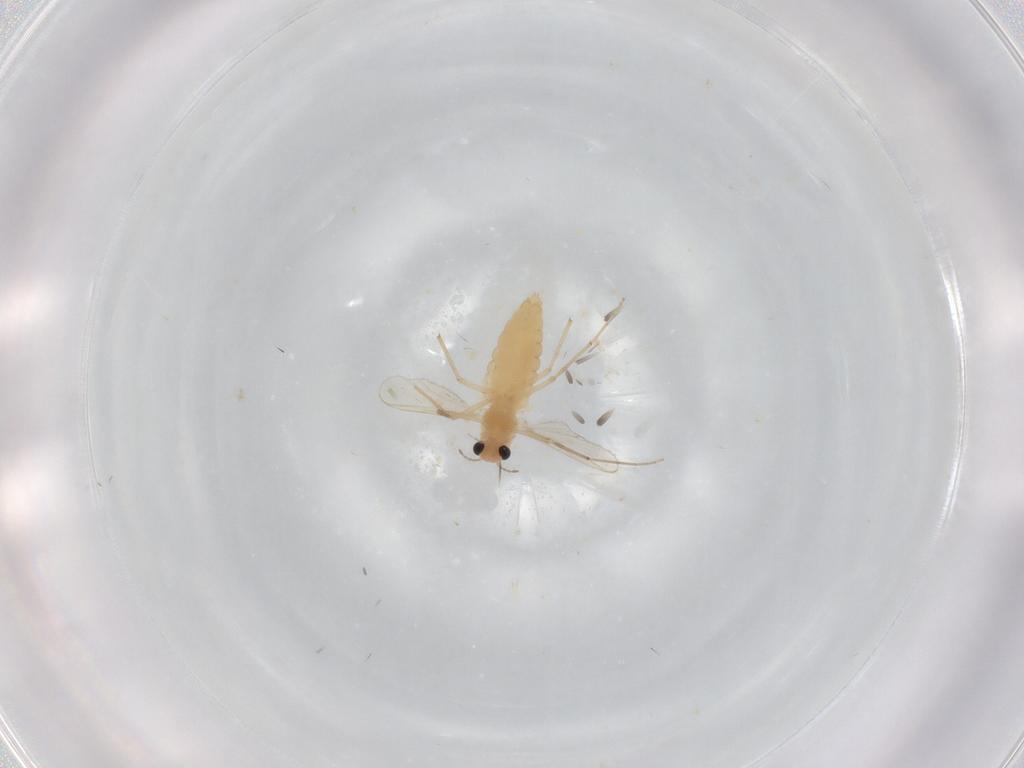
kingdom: Animalia
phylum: Arthropoda
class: Insecta
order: Diptera
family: Chironomidae
